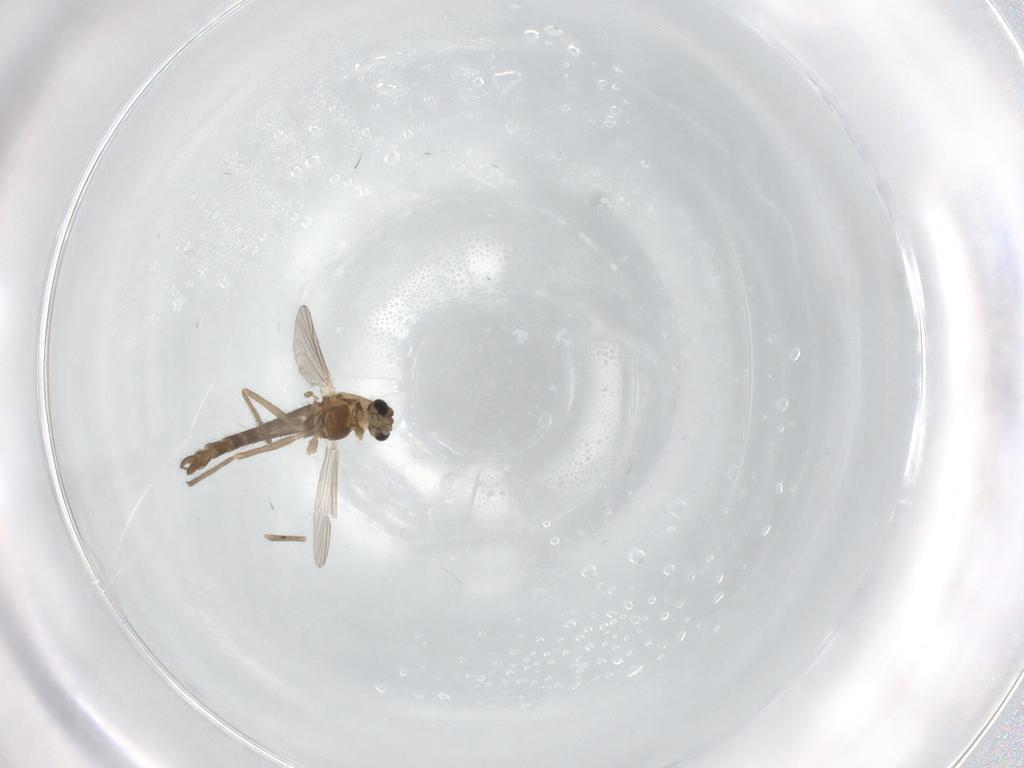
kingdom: Animalia
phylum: Arthropoda
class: Insecta
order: Diptera
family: Chironomidae
